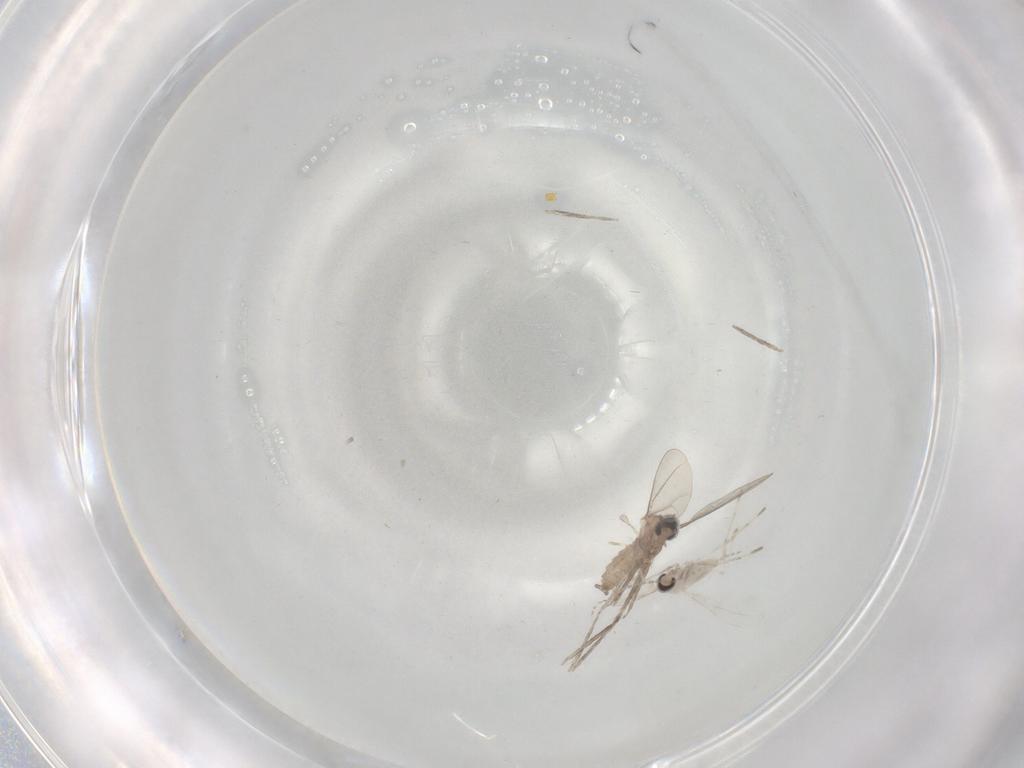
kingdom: Animalia
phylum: Arthropoda
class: Insecta
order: Diptera
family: Cecidomyiidae
